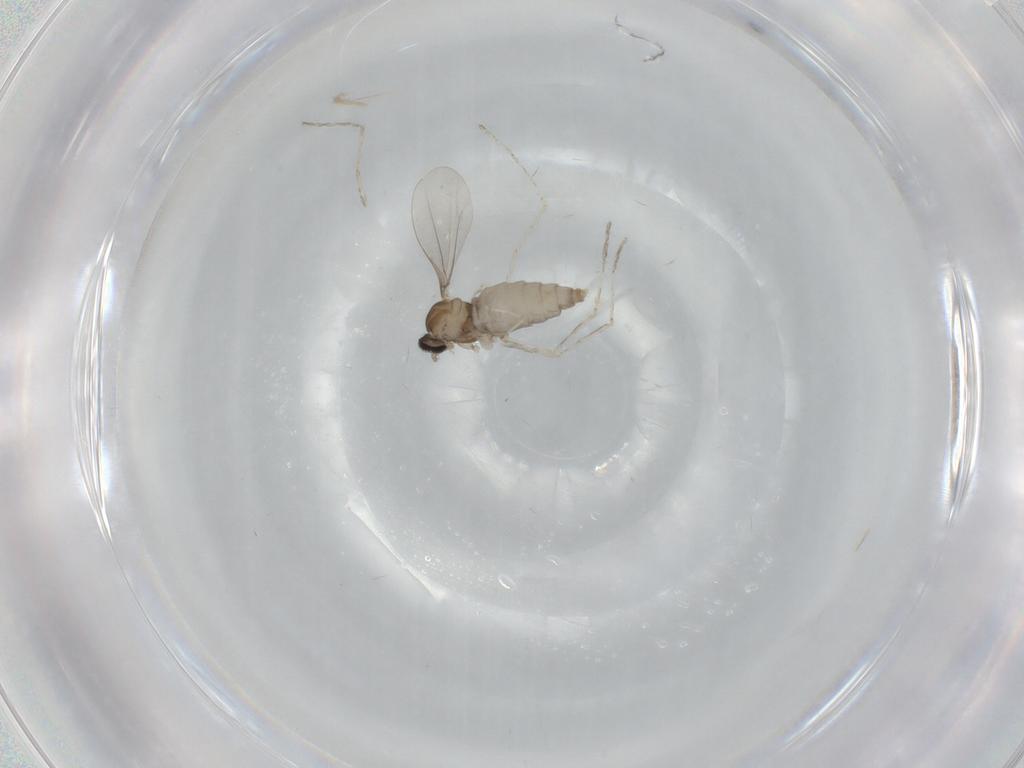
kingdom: Animalia
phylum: Arthropoda
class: Insecta
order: Diptera
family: Cecidomyiidae
